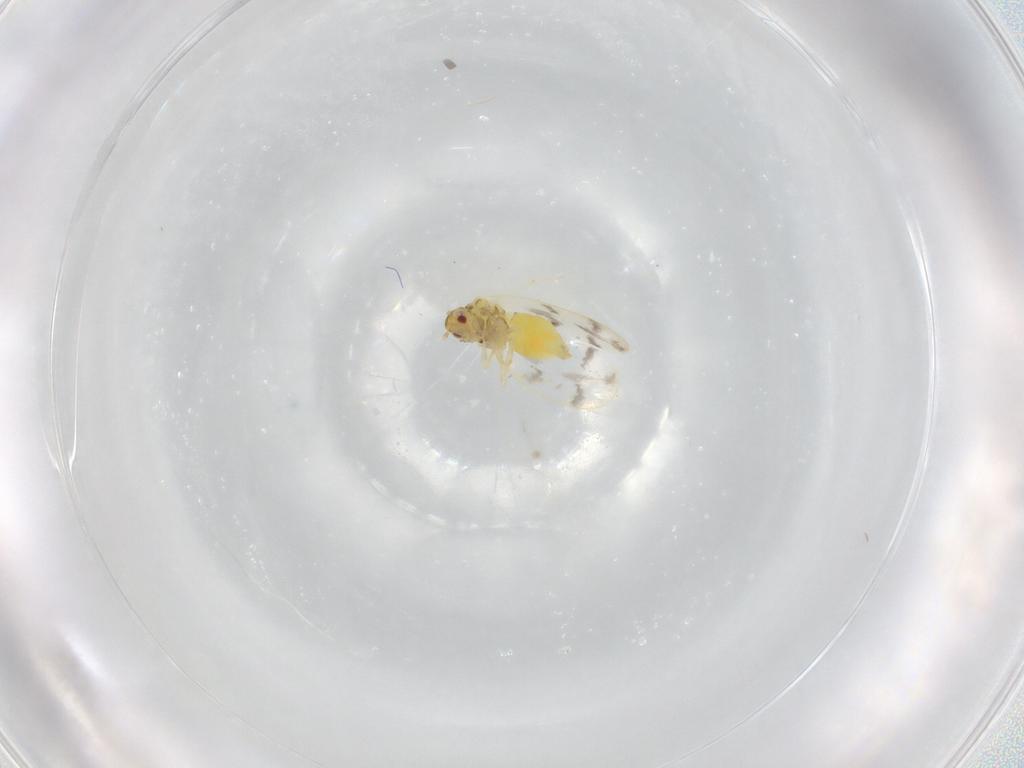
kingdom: Animalia
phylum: Arthropoda
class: Insecta
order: Hemiptera
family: Aleyrodidae
